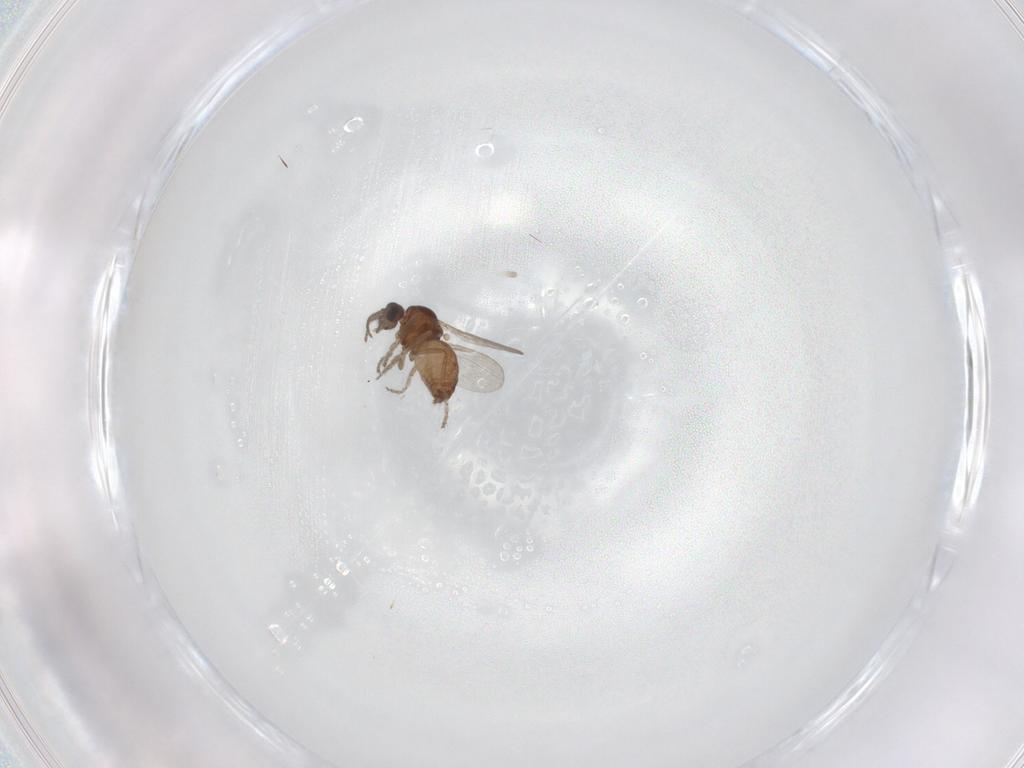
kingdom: Animalia
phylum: Arthropoda
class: Insecta
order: Diptera
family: Ceratopogonidae
